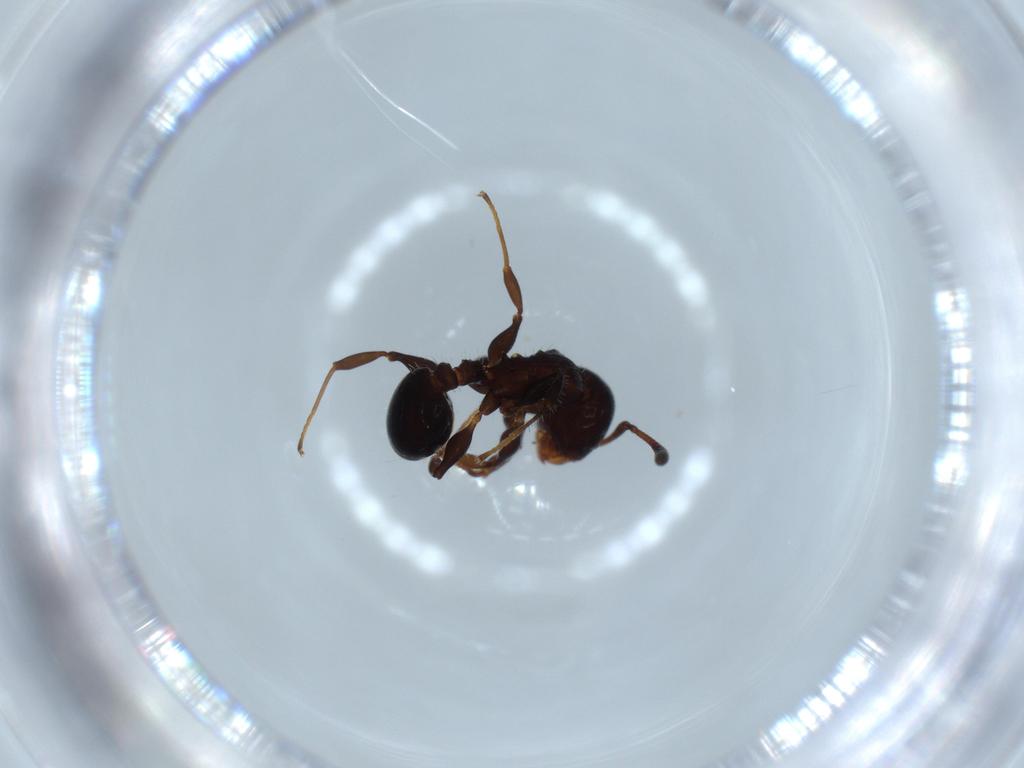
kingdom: Animalia
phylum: Arthropoda
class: Insecta
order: Hymenoptera
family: Formicidae
